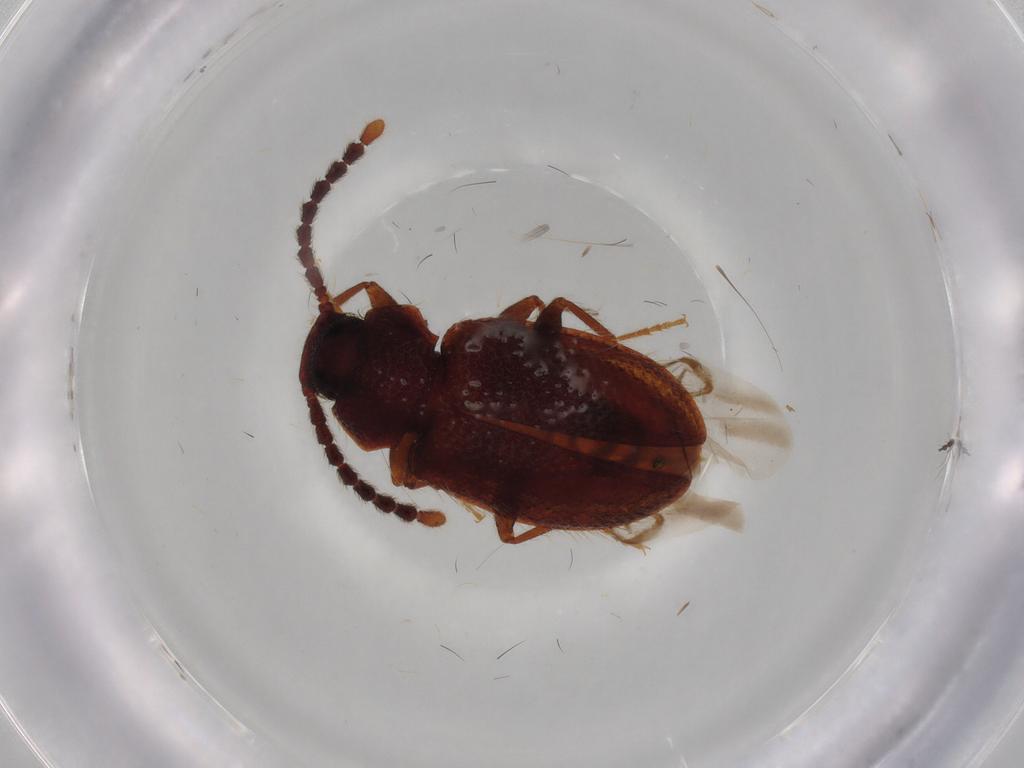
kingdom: Animalia
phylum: Arthropoda
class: Insecta
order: Coleoptera
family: Tenebrionidae
